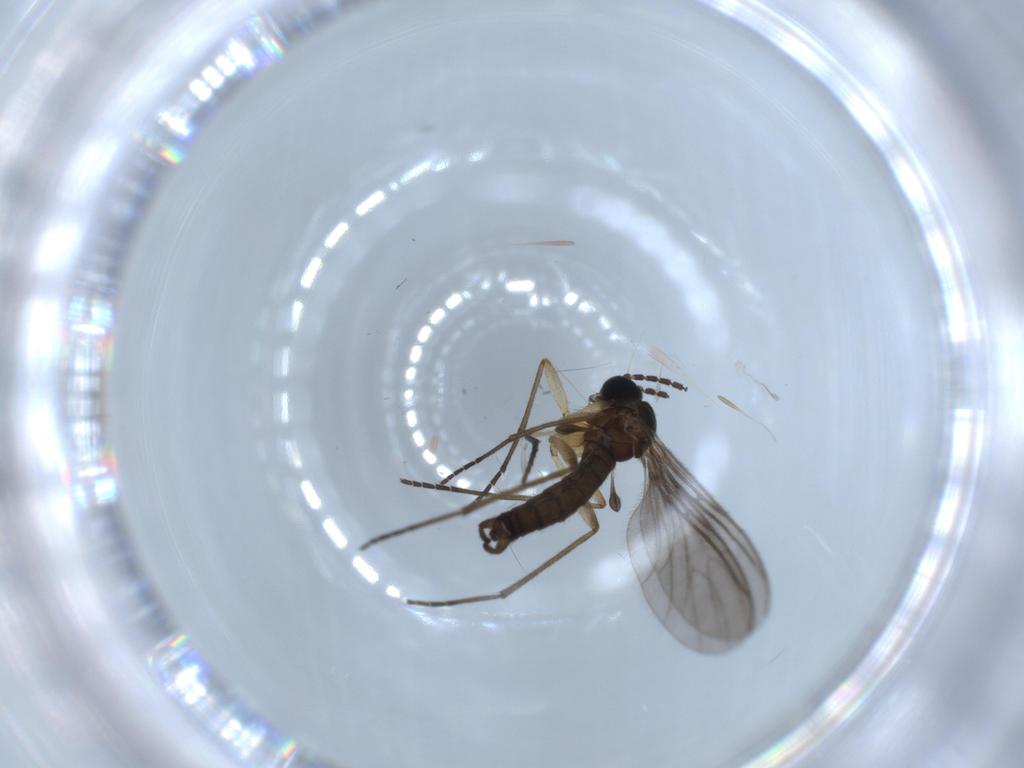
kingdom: Animalia
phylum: Arthropoda
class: Insecta
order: Diptera
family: Sciaridae
